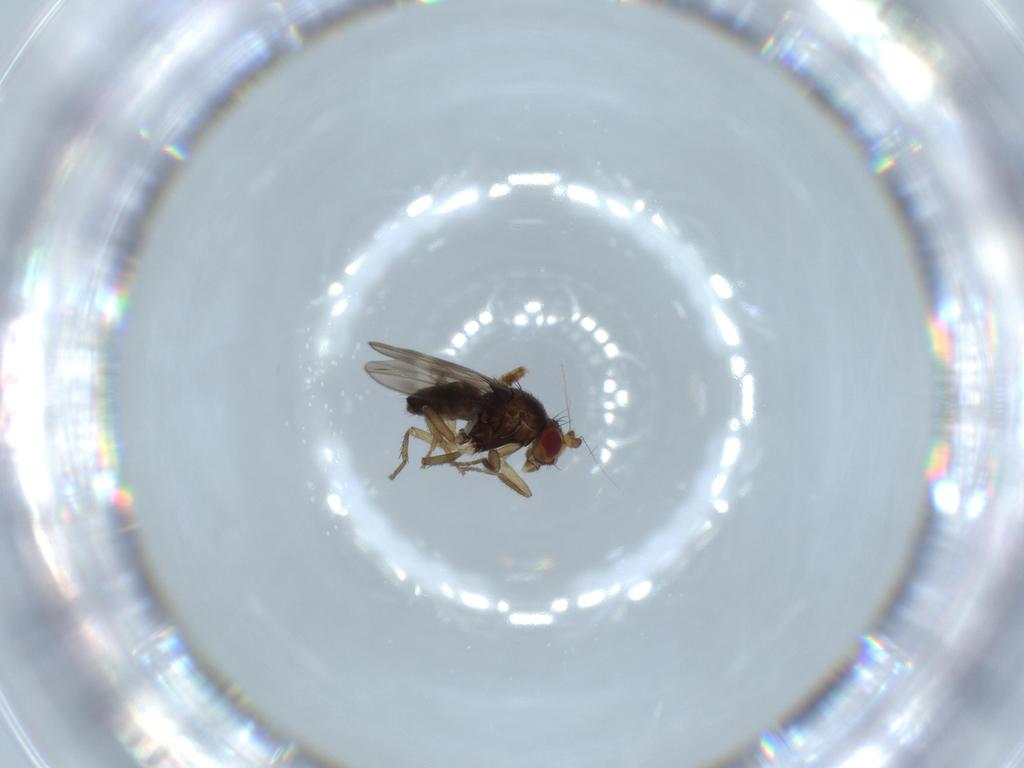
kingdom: Animalia
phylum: Arthropoda
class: Insecta
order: Diptera
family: Sphaeroceridae
